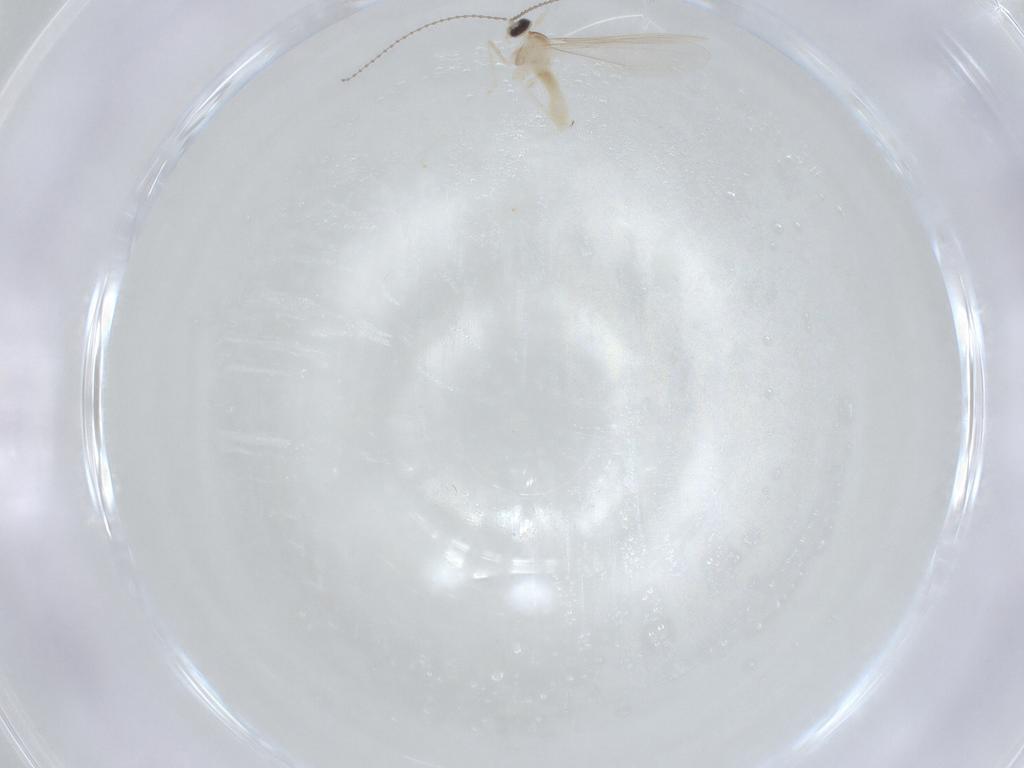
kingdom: Animalia
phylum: Arthropoda
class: Insecta
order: Diptera
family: Cecidomyiidae
